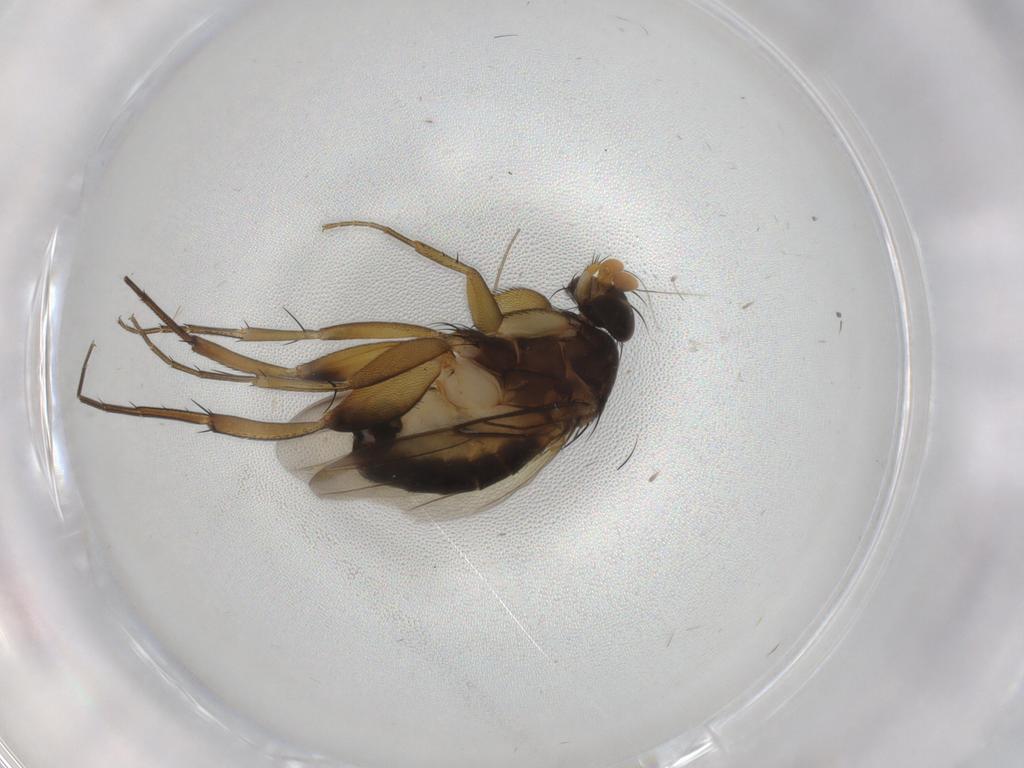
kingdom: Animalia
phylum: Arthropoda
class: Insecta
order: Diptera
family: Phoridae
